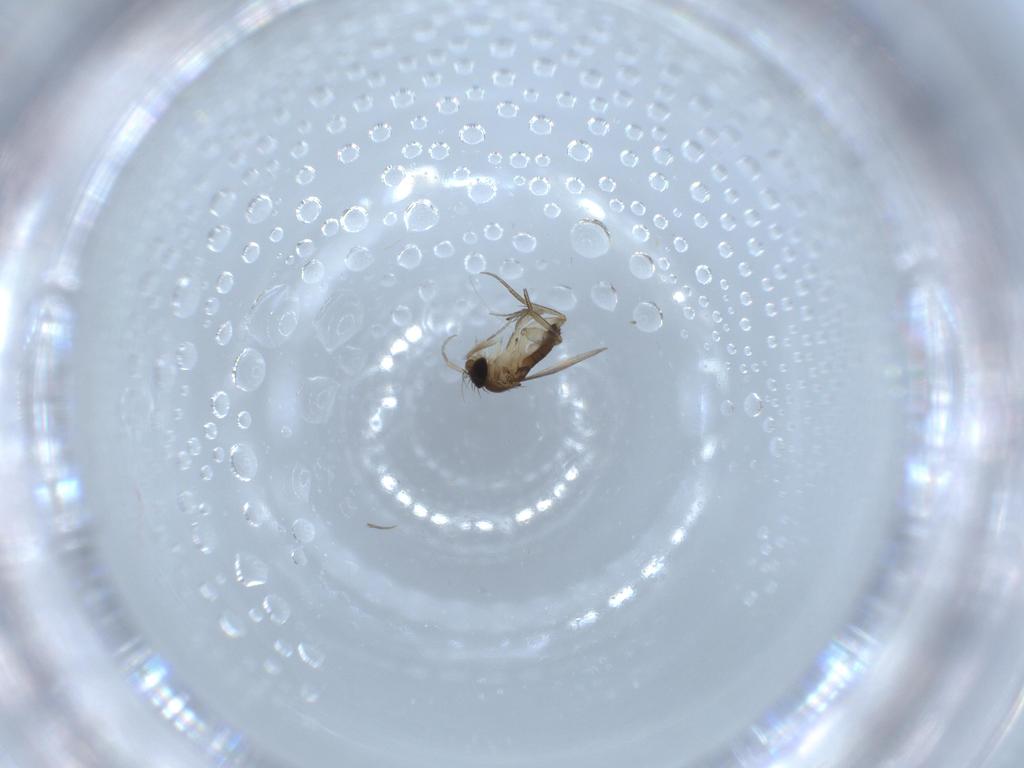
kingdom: Animalia
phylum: Arthropoda
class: Insecta
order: Diptera
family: Phoridae
